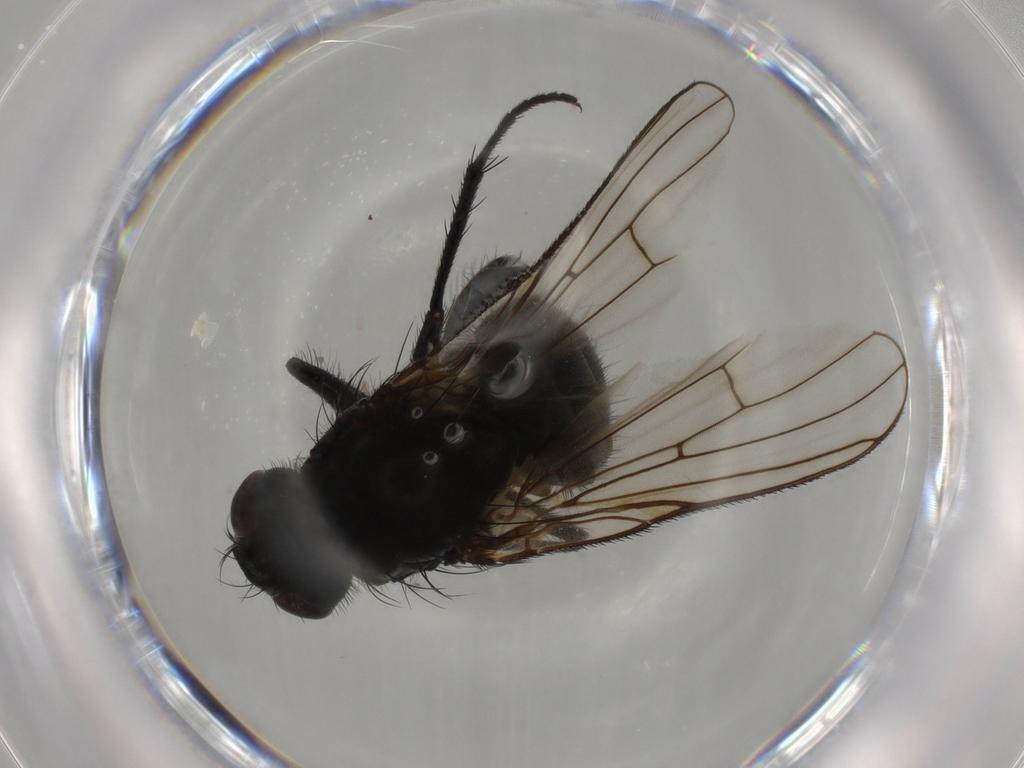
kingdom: Animalia
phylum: Arthropoda
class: Insecta
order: Diptera
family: Muscidae
